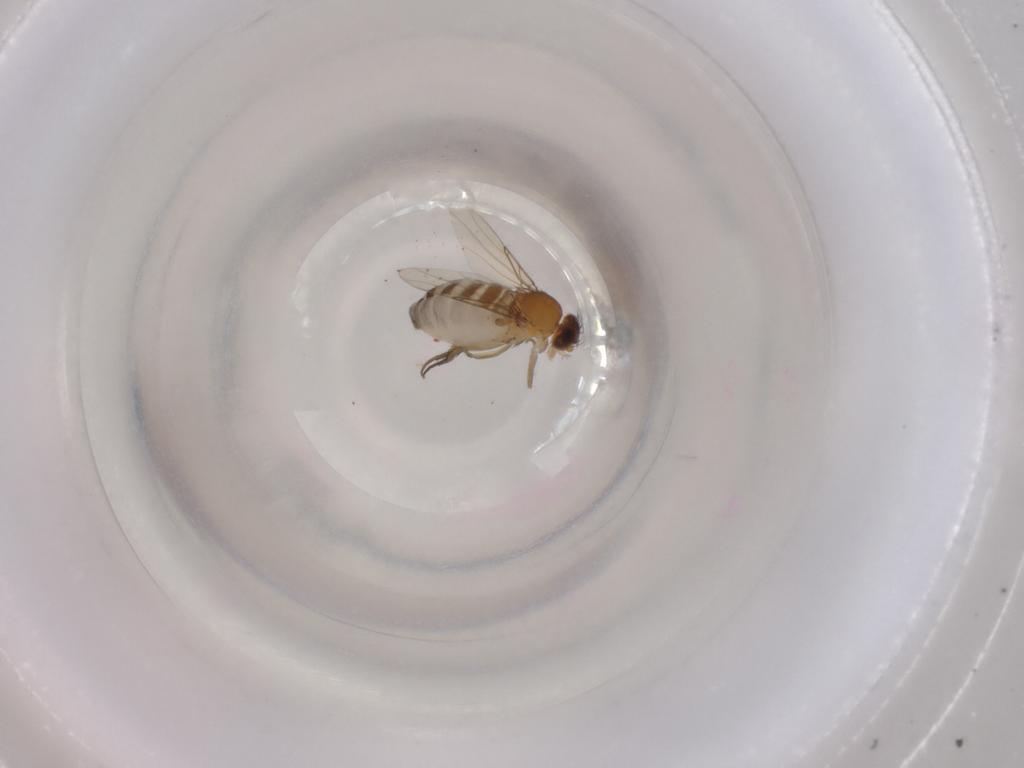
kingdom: Animalia
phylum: Arthropoda
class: Insecta
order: Diptera
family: Phoridae
